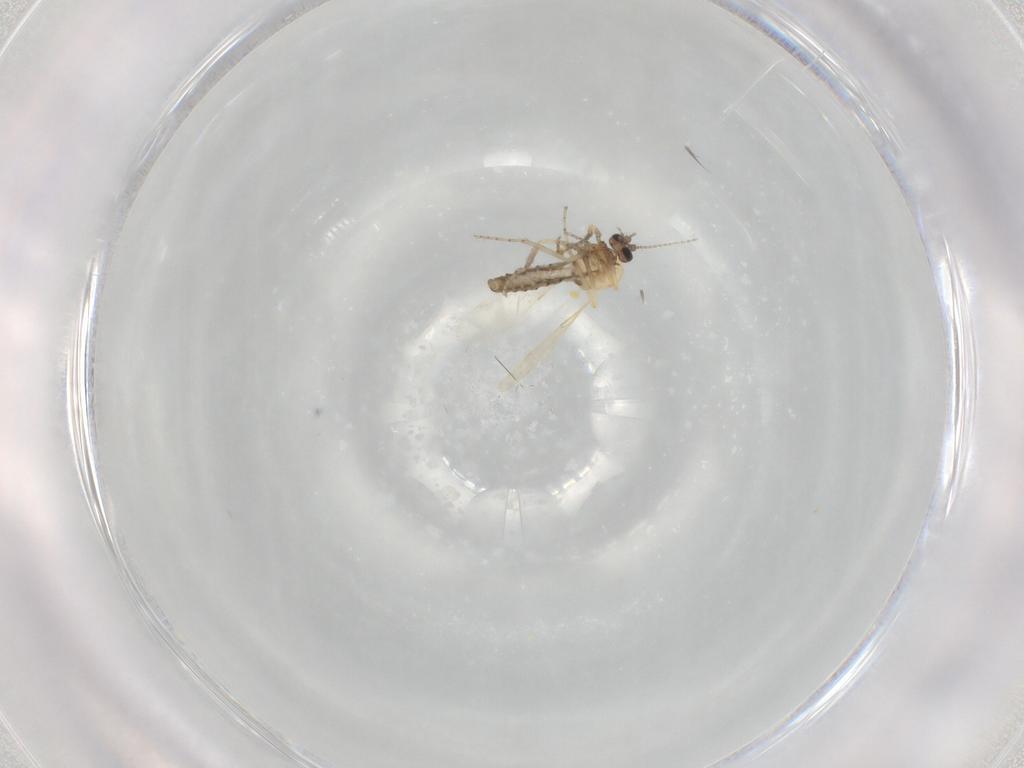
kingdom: Animalia
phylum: Arthropoda
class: Insecta
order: Diptera
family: Ceratopogonidae
